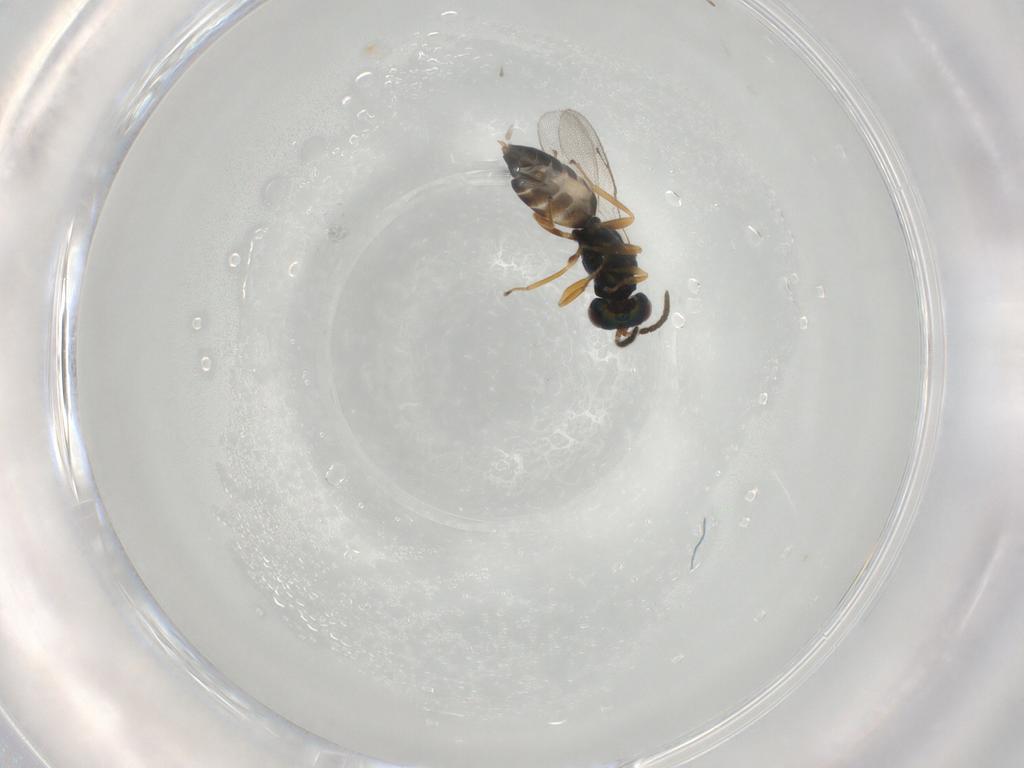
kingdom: Animalia
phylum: Arthropoda
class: Insecta
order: Hymenoptera
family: Pteromalidae
